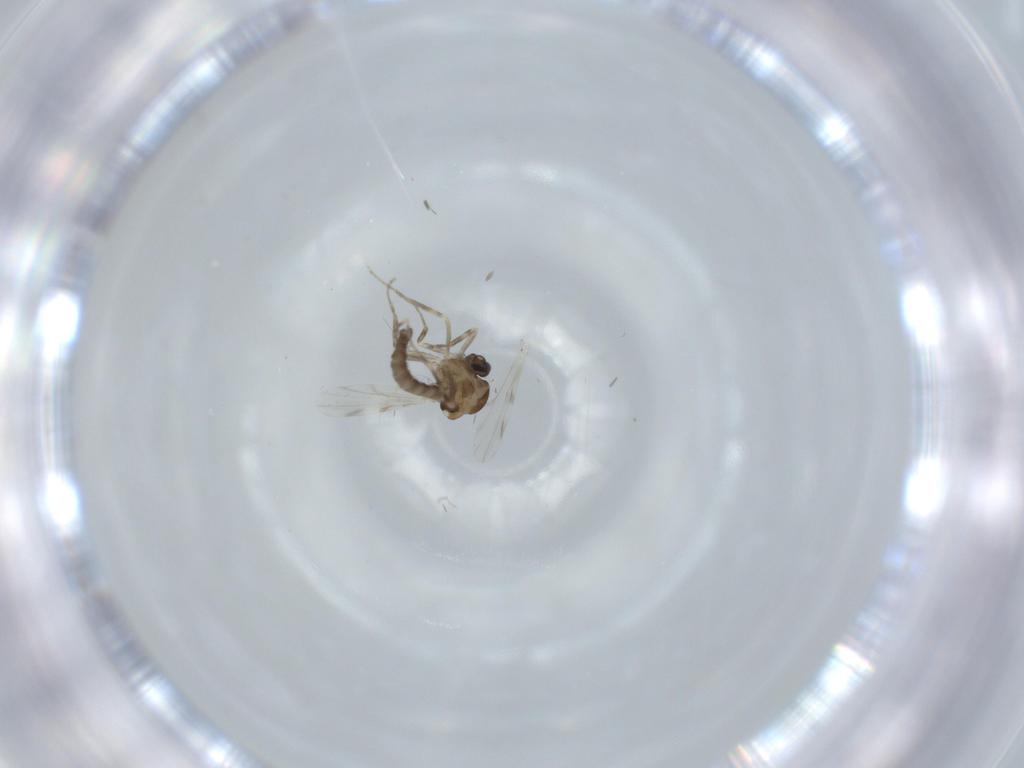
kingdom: Animalia
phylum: Arthropoda
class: Insecta
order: Diptera
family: Ceratopogonidae
